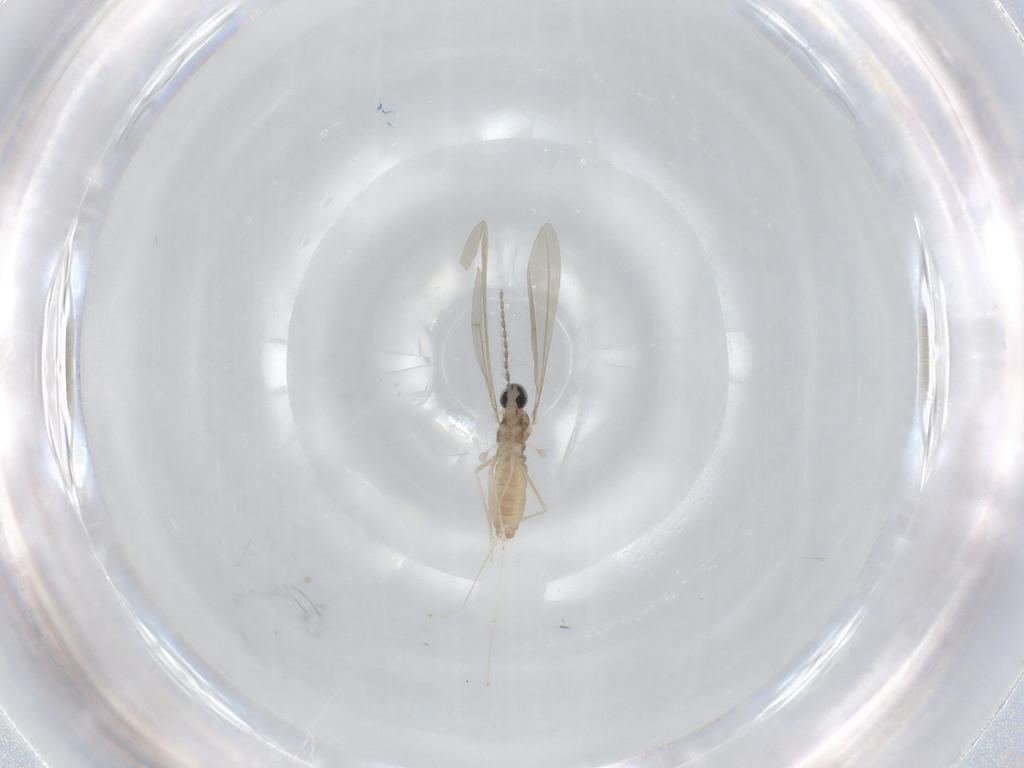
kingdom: Animalia
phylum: Arthropoda
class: Insecta
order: Diptera
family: Cecidomyiidae
